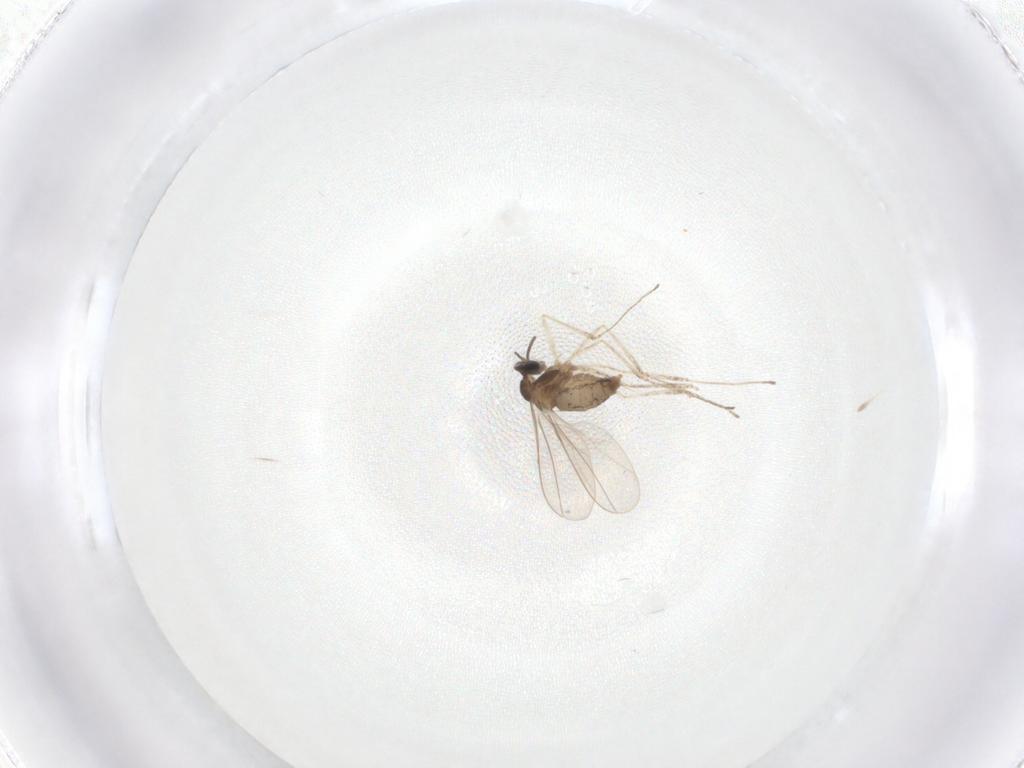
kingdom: Animalia
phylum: Arthropoda
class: Insecta
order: Diptera
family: Cecidomyiidae
